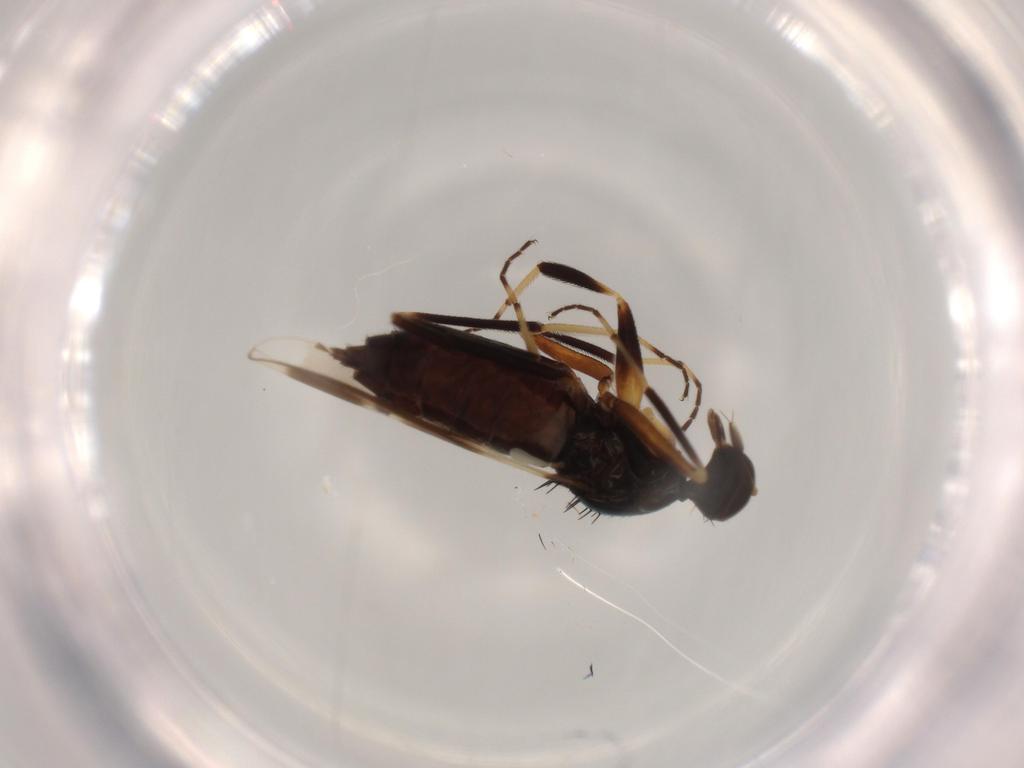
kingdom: Animalia
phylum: Arthropoda
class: Insecta
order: Diptera
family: Hybotidae
